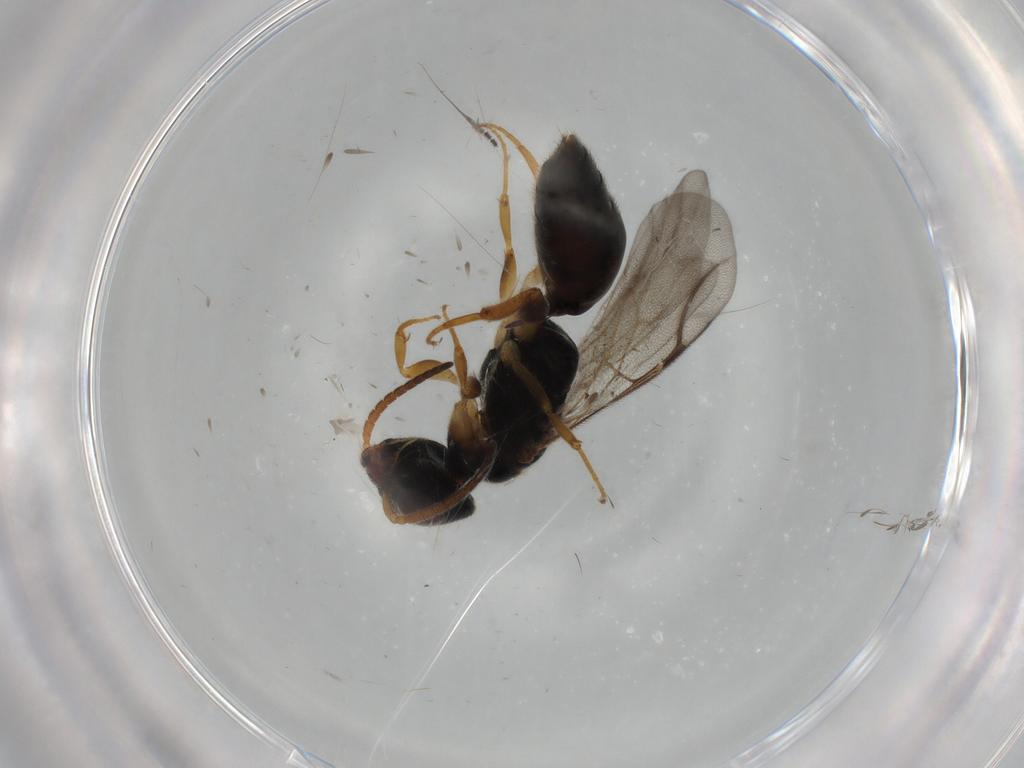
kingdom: Animalia
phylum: Arthropoda
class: Insecta
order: Hymenoptera
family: Bethylidae
